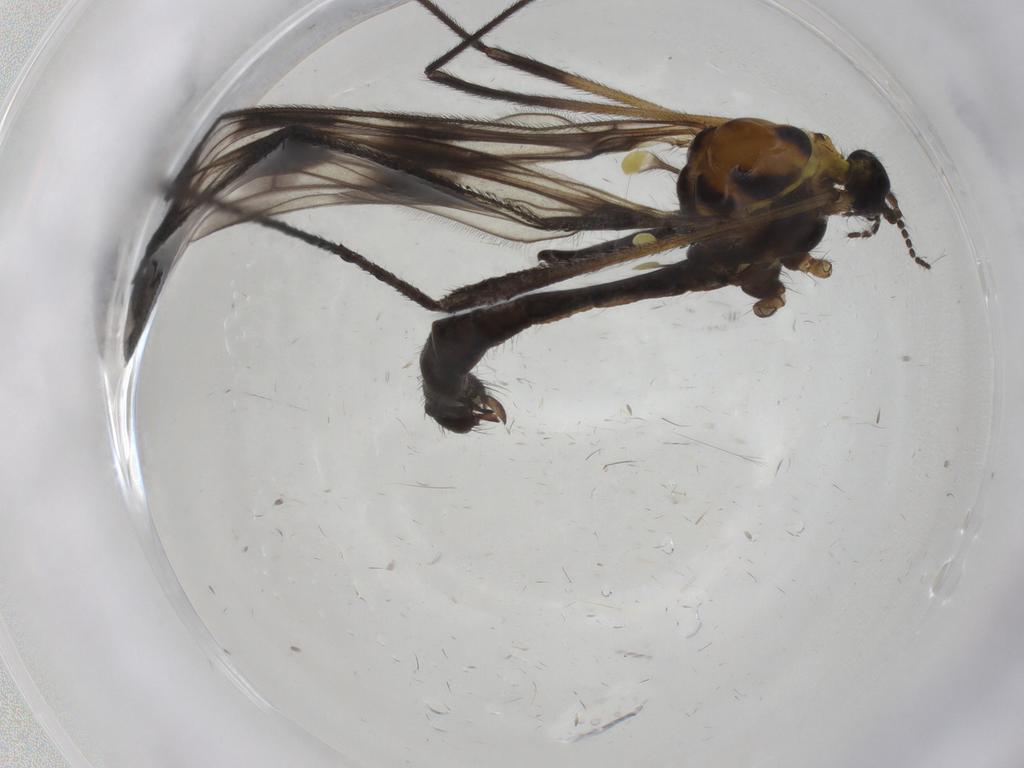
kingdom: Animalia
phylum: Arthropoda
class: Insecta
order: Diptera
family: Limoniidae
